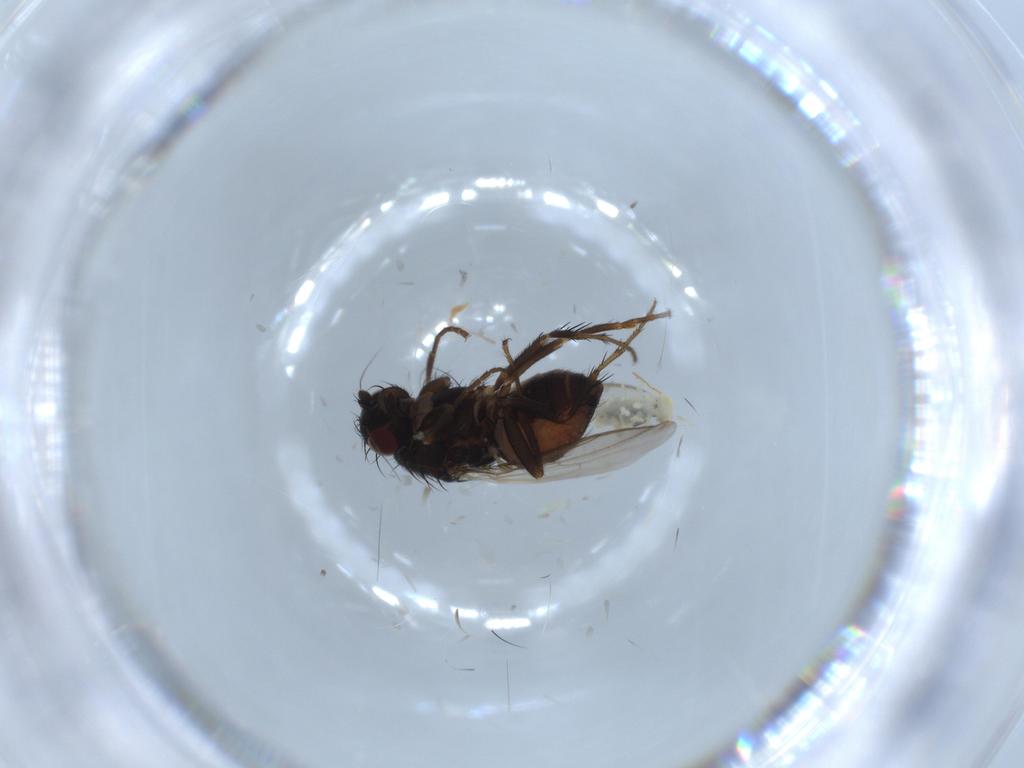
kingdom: Animalia
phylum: Arthropoda
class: Insecta
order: Diptera
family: Sphaeroceridae
